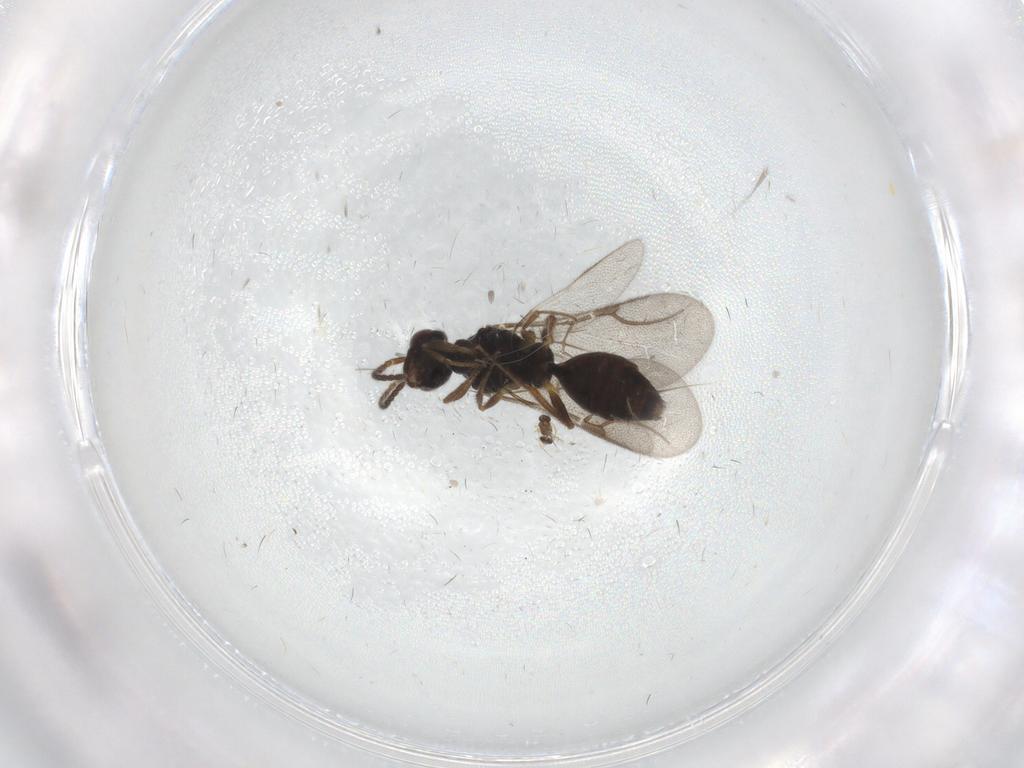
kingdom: Animalia
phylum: Arthropoda
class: Insecta
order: Hymenoptera
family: Bethylidae
